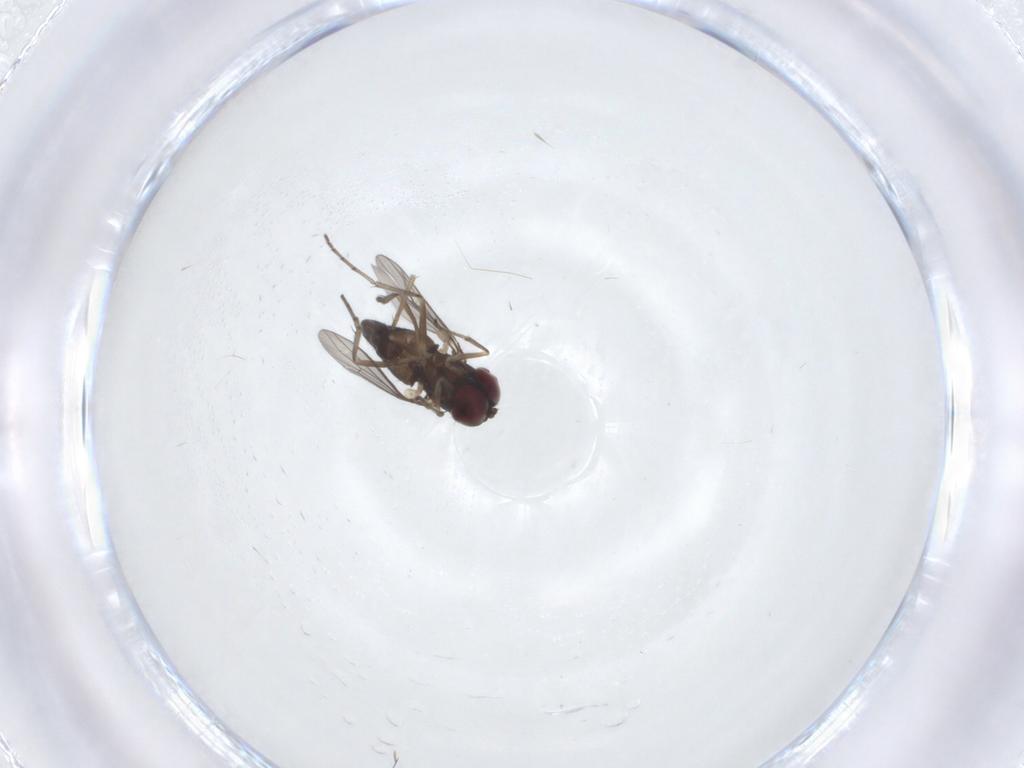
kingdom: Animalia
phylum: Arthropoda
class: Insecta
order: Diptera
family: Dolichopodidae
